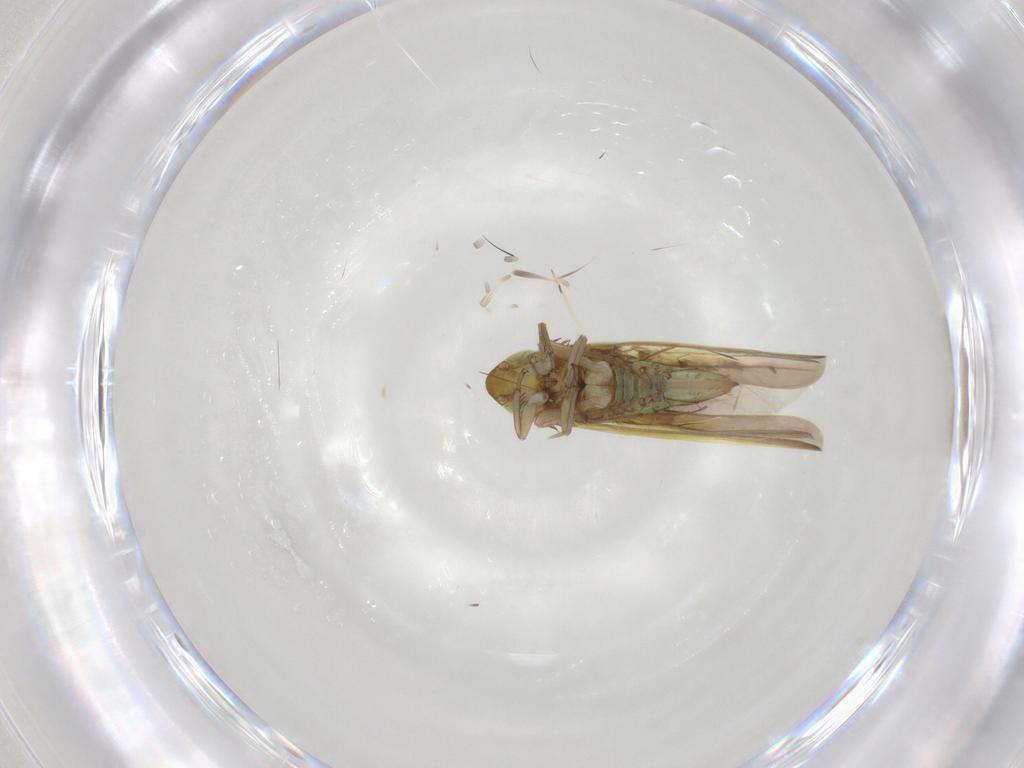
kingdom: Animalia
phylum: Arthropoda
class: Insecta
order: Hemiptera
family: Cicadellidae
